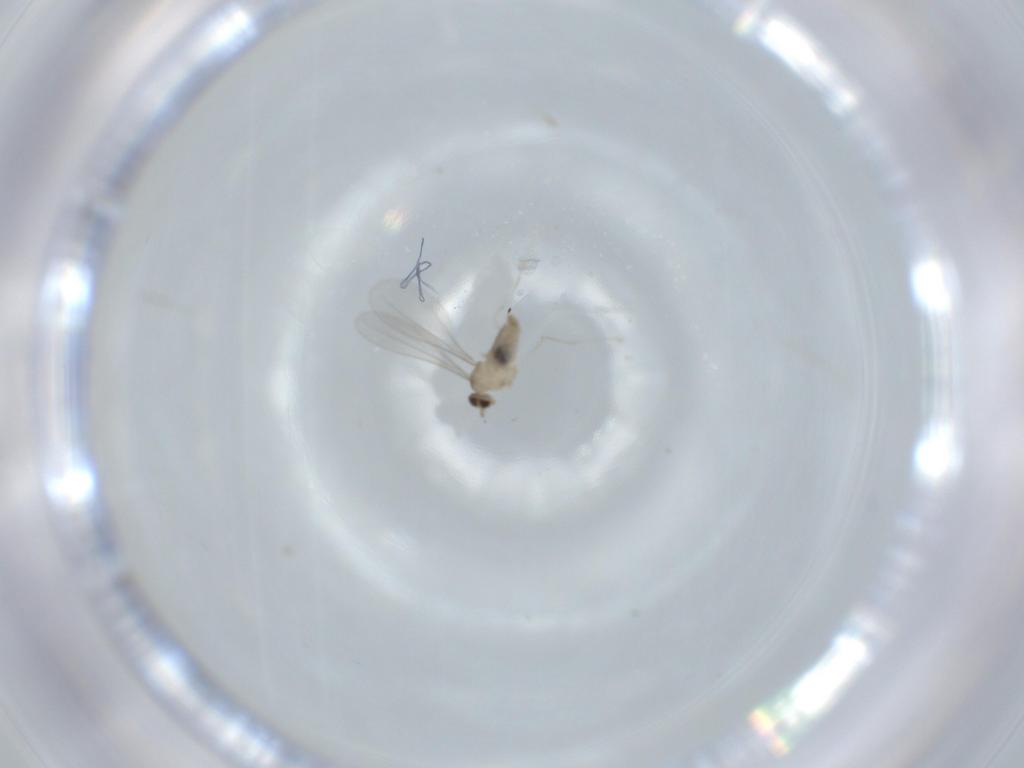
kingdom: Animalia
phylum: Arthropoda
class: Insecta
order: Diptera
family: Cecidomyiidae
